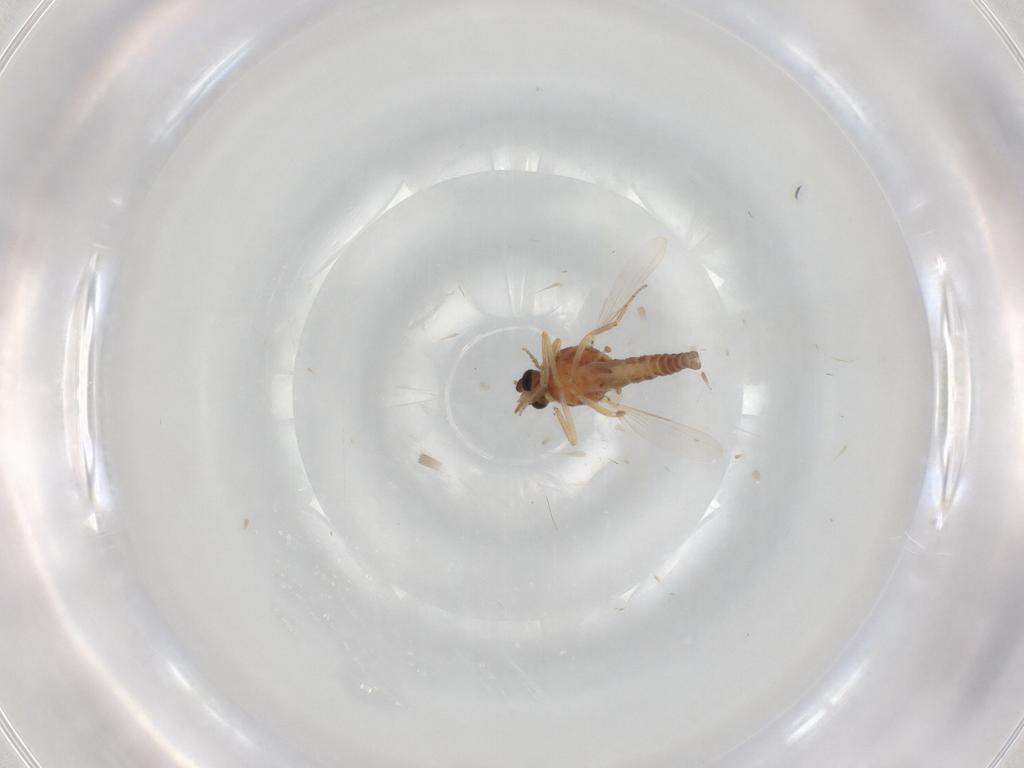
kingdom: Animalia
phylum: Arthropoda
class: Insecta
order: Diptera
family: Ceratopogonidae
